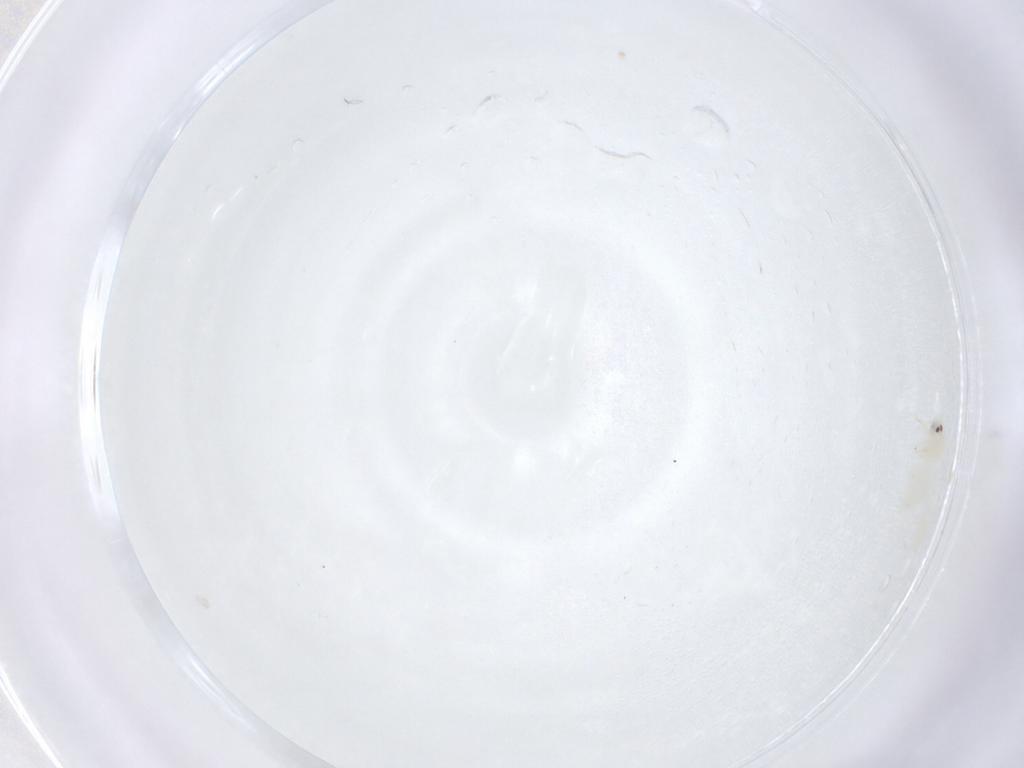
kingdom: Animalia
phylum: Arthropoda
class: Insecta
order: Hemiptera
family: Aleyrodidae
